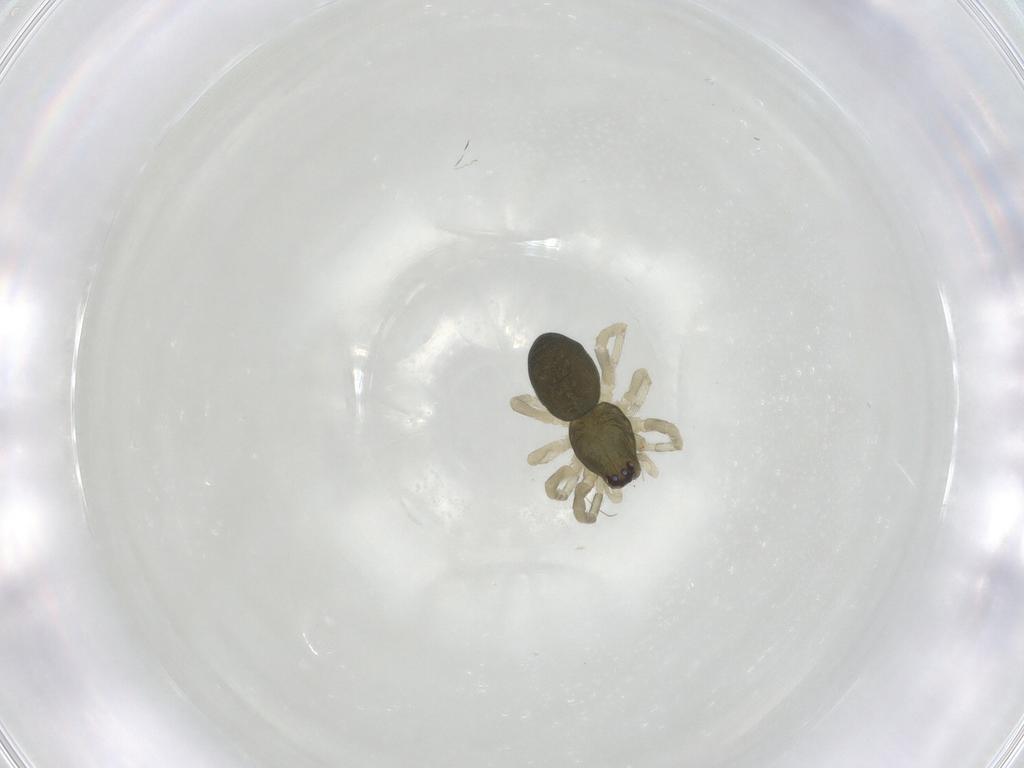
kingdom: Animalia
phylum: Arthropoda
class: Arachnida
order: Araneae
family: Trachelidae
